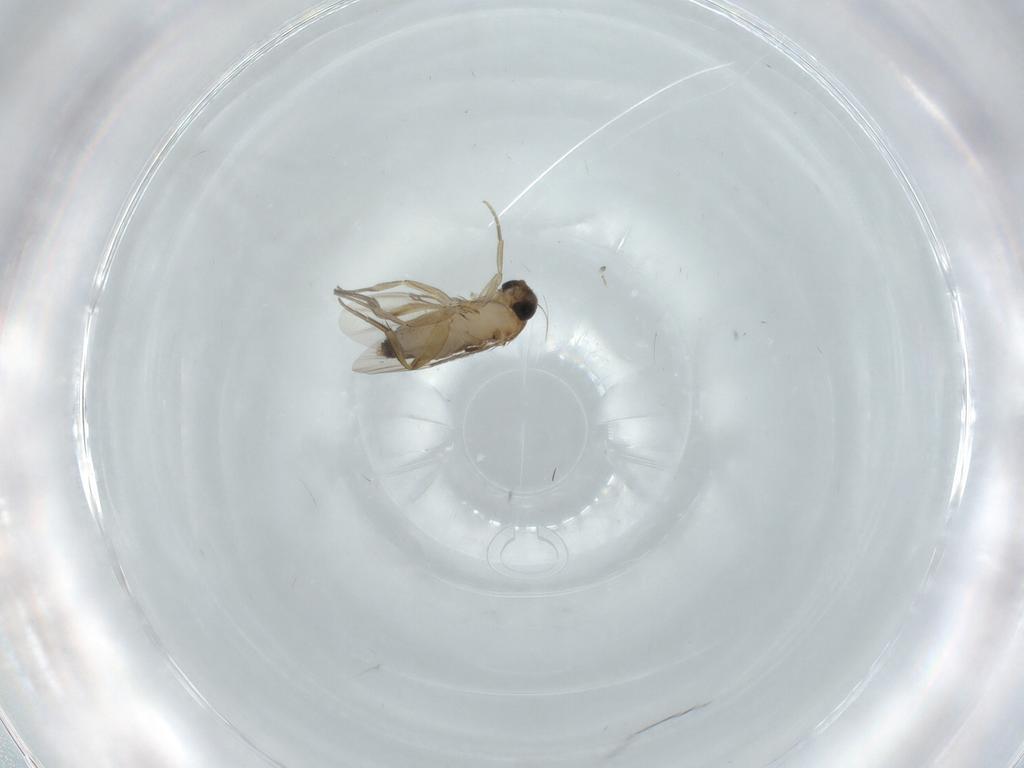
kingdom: Animalia
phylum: Arthropoda
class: Insecta
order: Diptera
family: Phoridae
